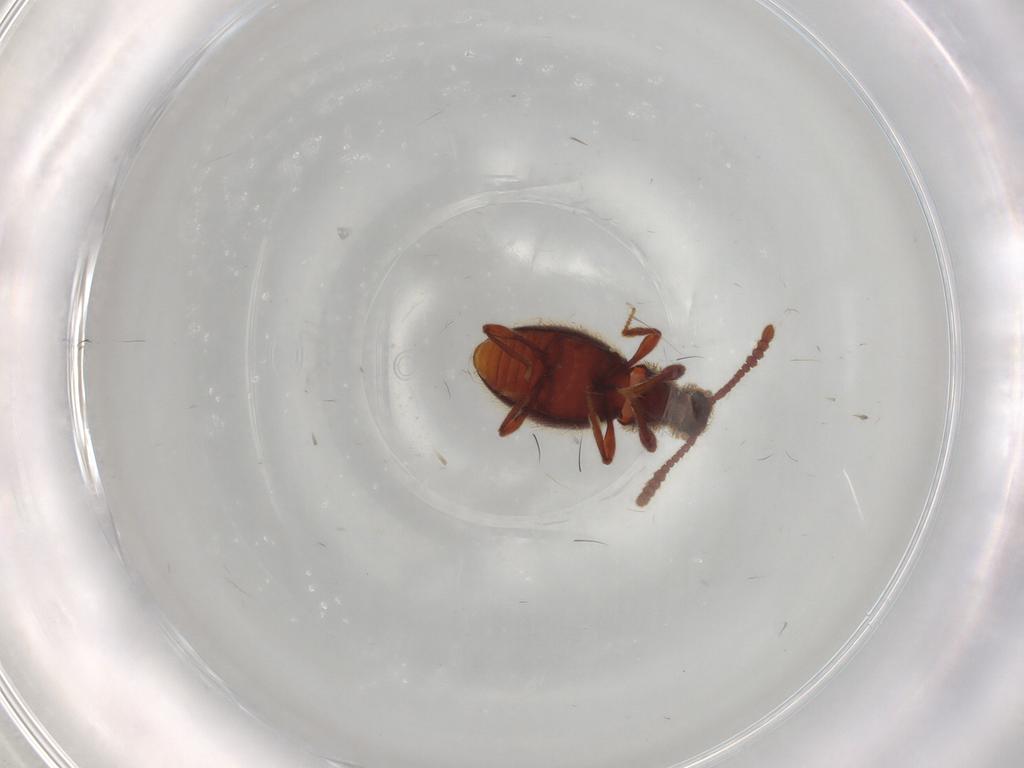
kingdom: Animalia
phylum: Arthropoda
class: Insecta
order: Coleoptera
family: Staphylinidae
